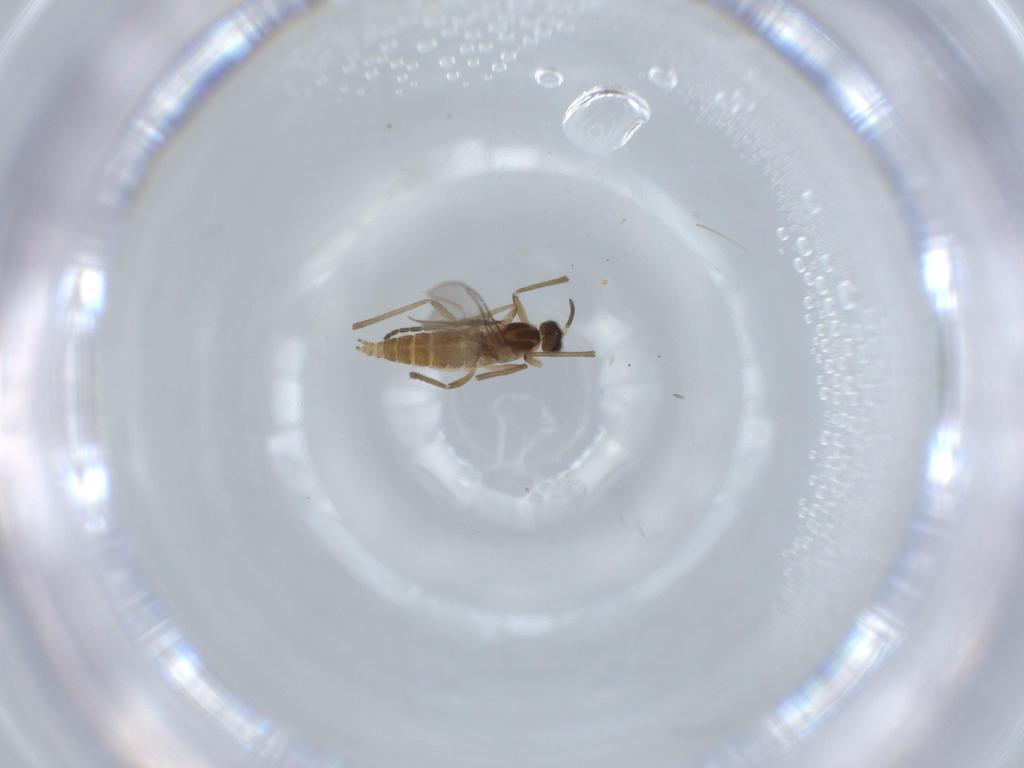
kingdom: Animalia
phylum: Arthropoda
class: Insecta
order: Diptera
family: Cecidomyiidae
